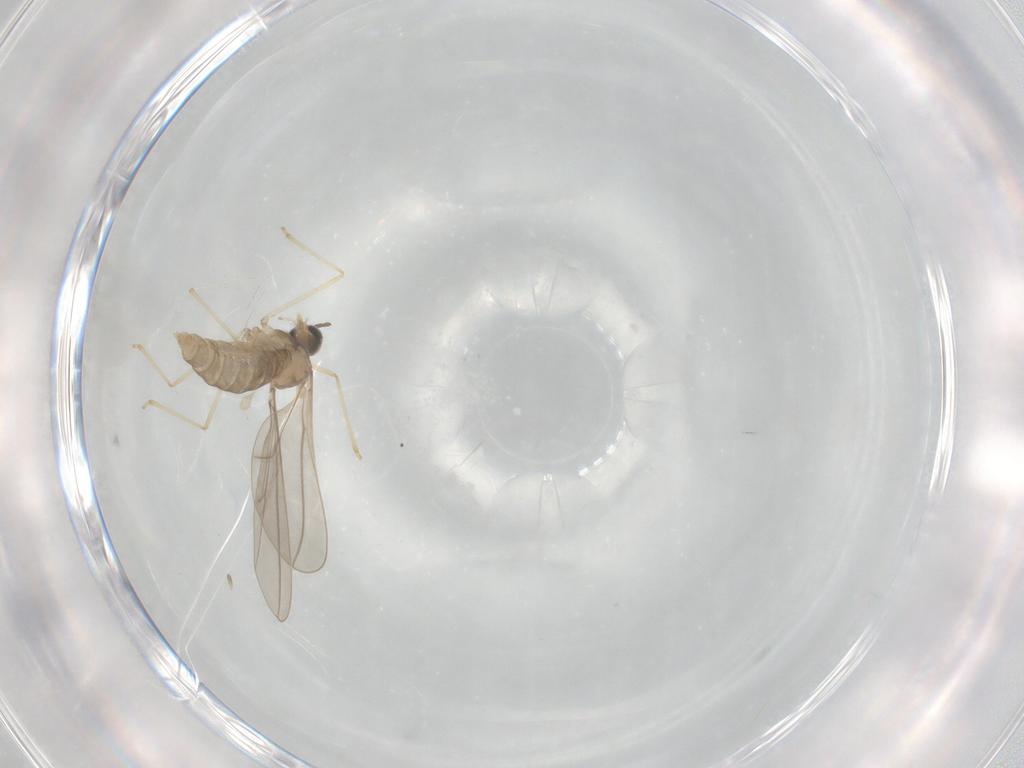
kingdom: Animalia
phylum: Arthropoda
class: Insecta
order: Diptera
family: Cecidomyiidae
